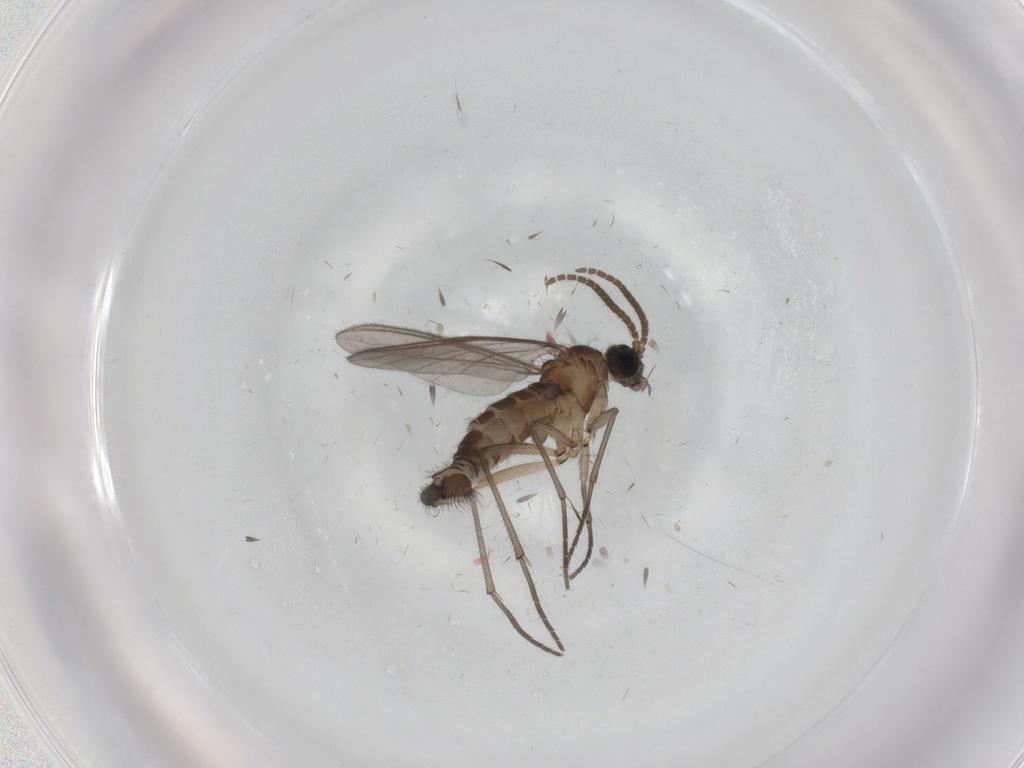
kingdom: Animalia
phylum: Arthropoda
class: Insecta
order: Diptera
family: Sciaridae
